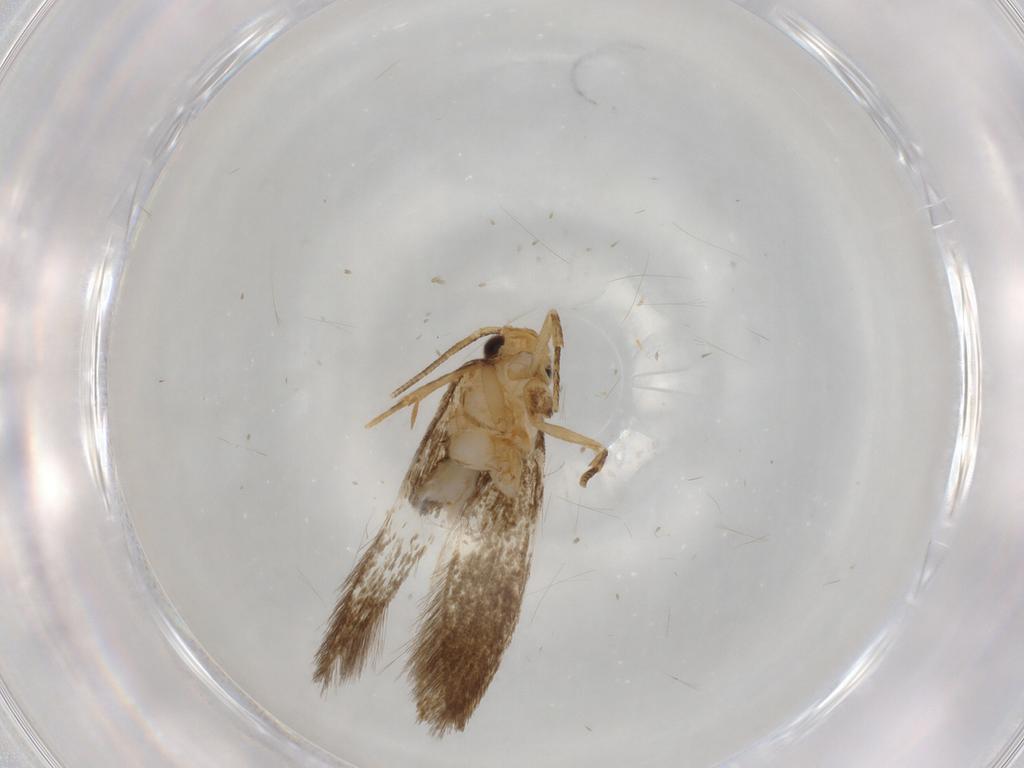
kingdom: Animalia
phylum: Arthropoda
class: Insecta
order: Lepidoptera
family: Tineidae
